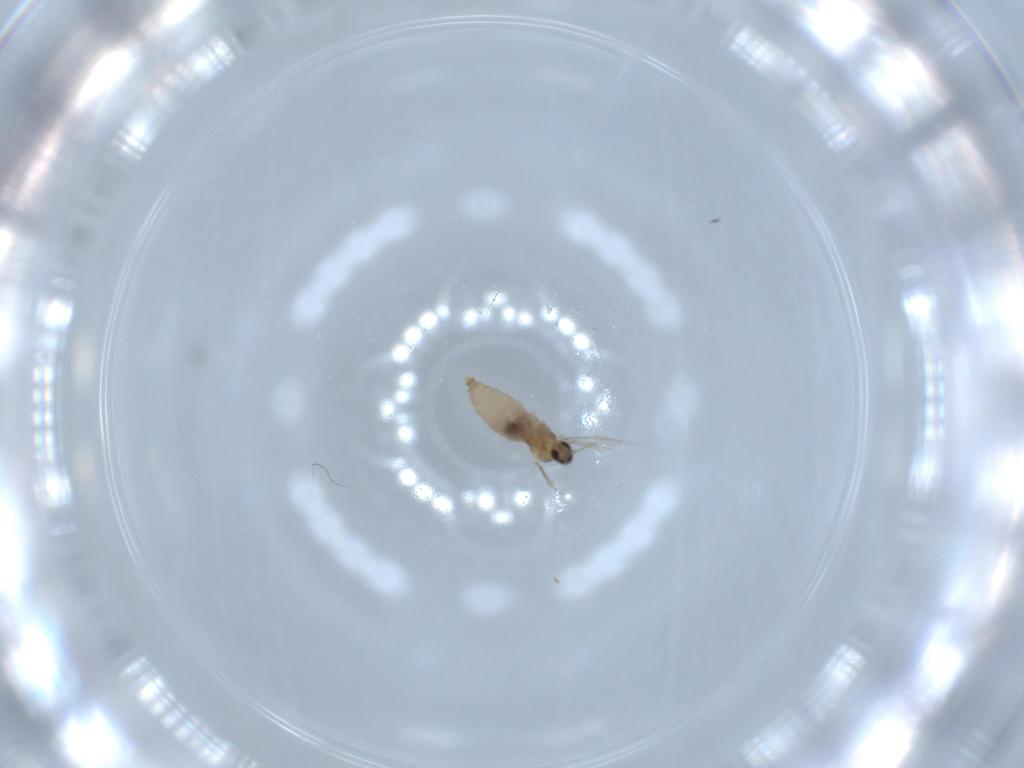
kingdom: Animalia
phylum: Arthropoda
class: Insecta
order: Diptera
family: Cecidomyiidae
